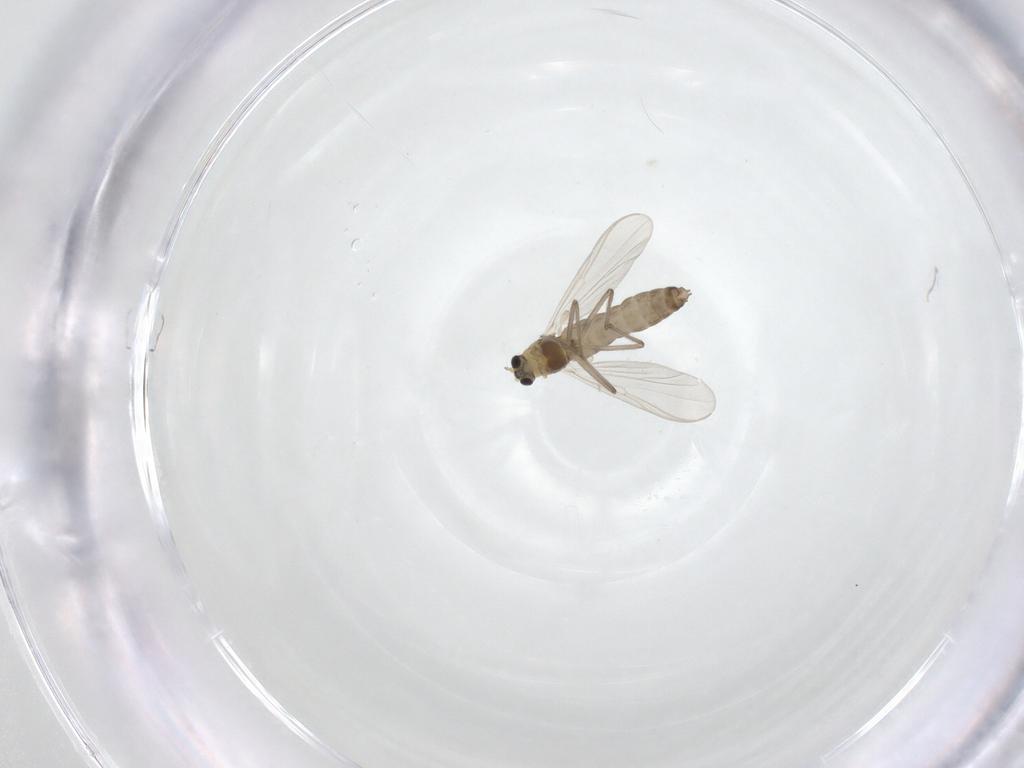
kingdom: Animalia
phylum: Arthropoda
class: Insecta
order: Diptera
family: Chironomidae
